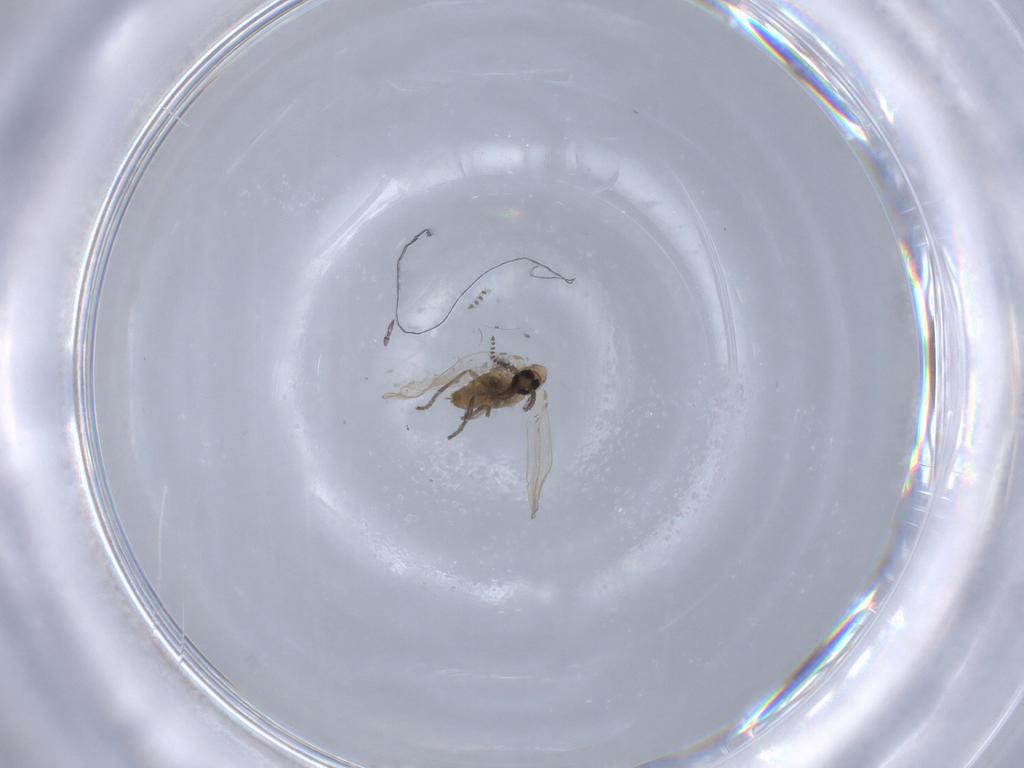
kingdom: Animalia
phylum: Arthropoda
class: Insecta
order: Diptera
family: Psychodidae
